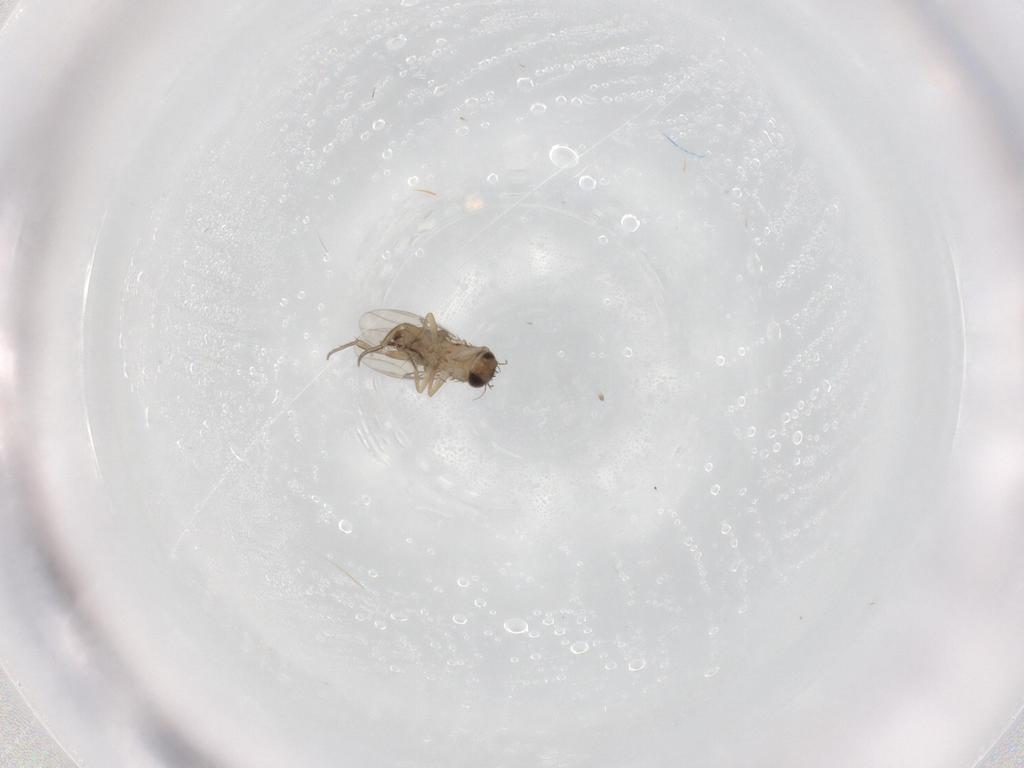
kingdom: Animalia
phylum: Arthropoda
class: Insecta
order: Diptera
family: Phoridae
